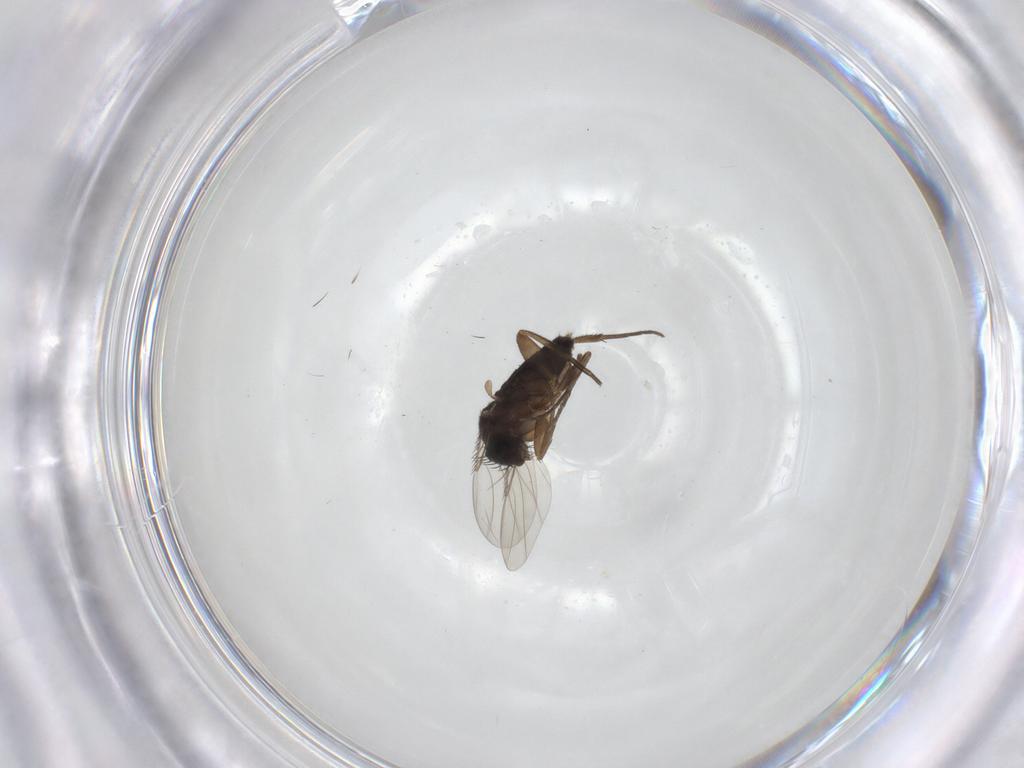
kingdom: Animalia
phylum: Arthropoda
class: Insecta
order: Diptera
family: Phoridae
